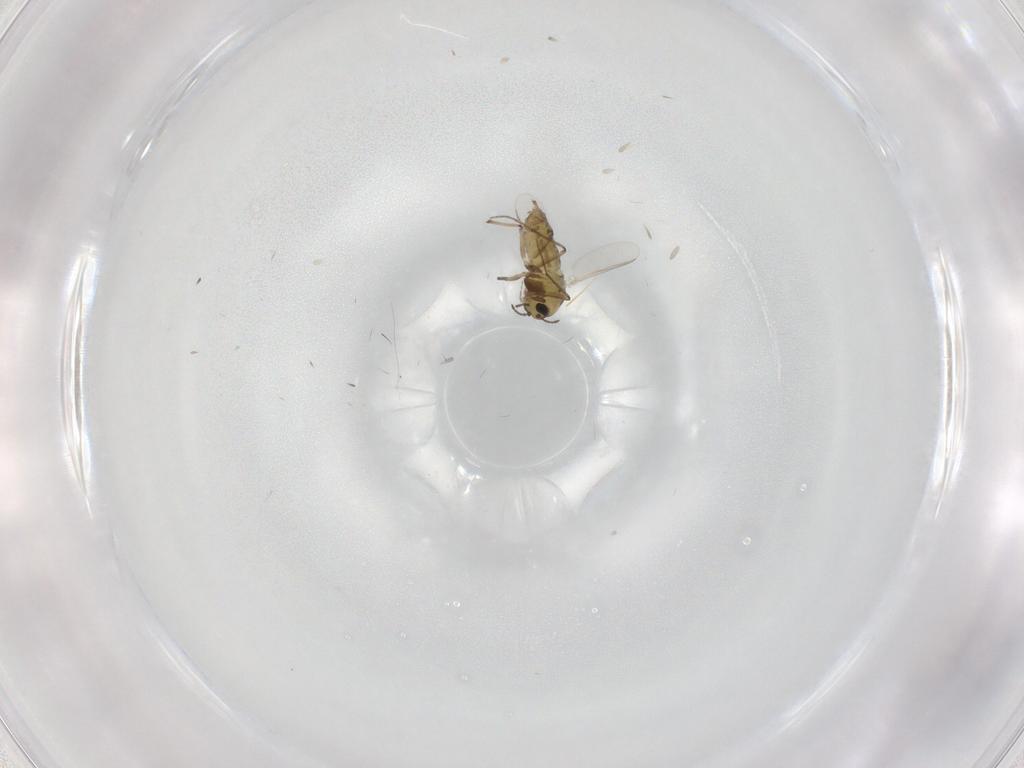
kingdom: Animalia
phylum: Arthropoda
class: Insecta
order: Diptera
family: Chironomidae
